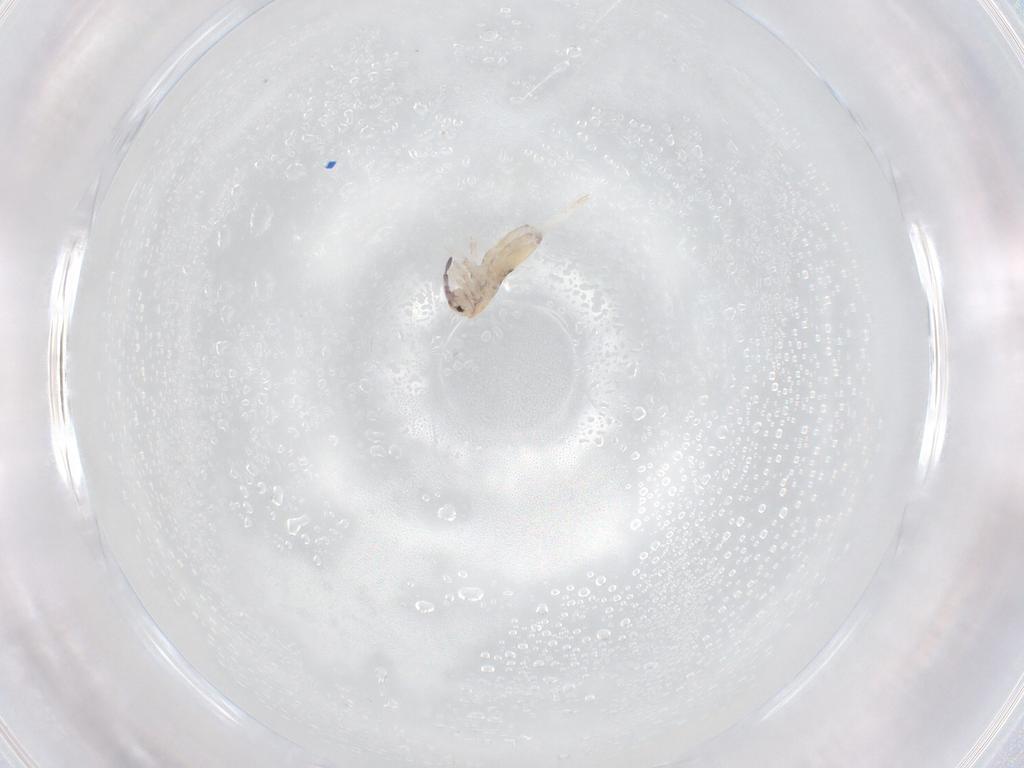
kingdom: Animalia
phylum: Arthropoda
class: Collembola
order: Entomobryomorpha
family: Entomobryidae
